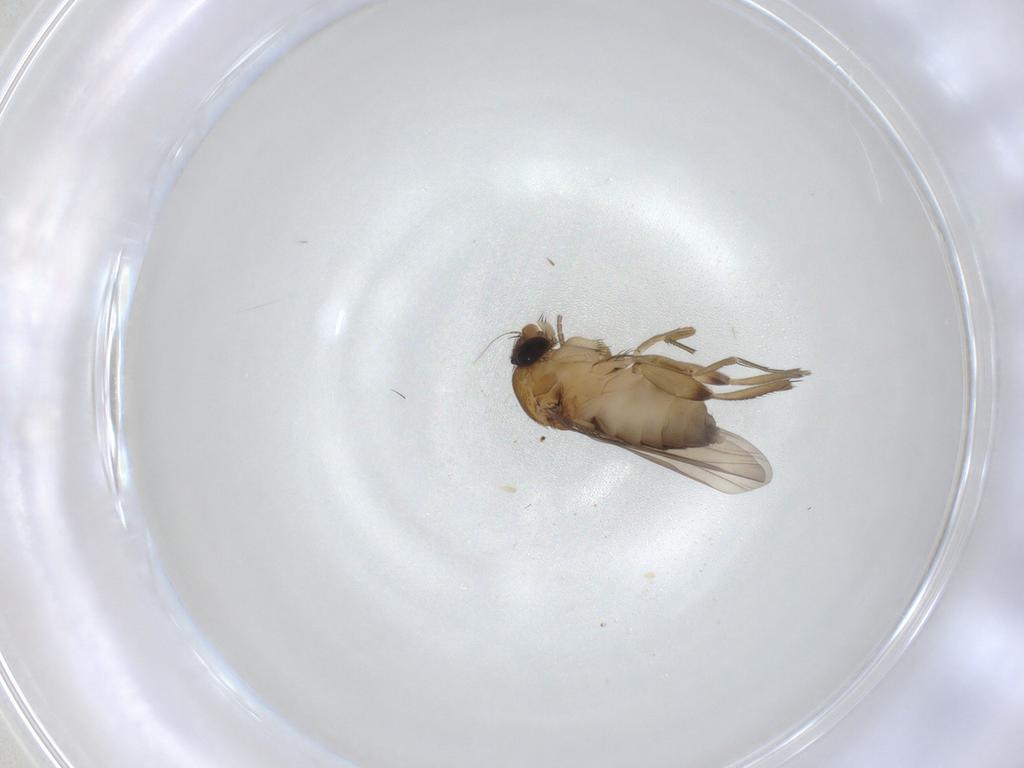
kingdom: Animalia
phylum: Arthropoda
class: Insecta
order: Diptera
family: Phoridae
